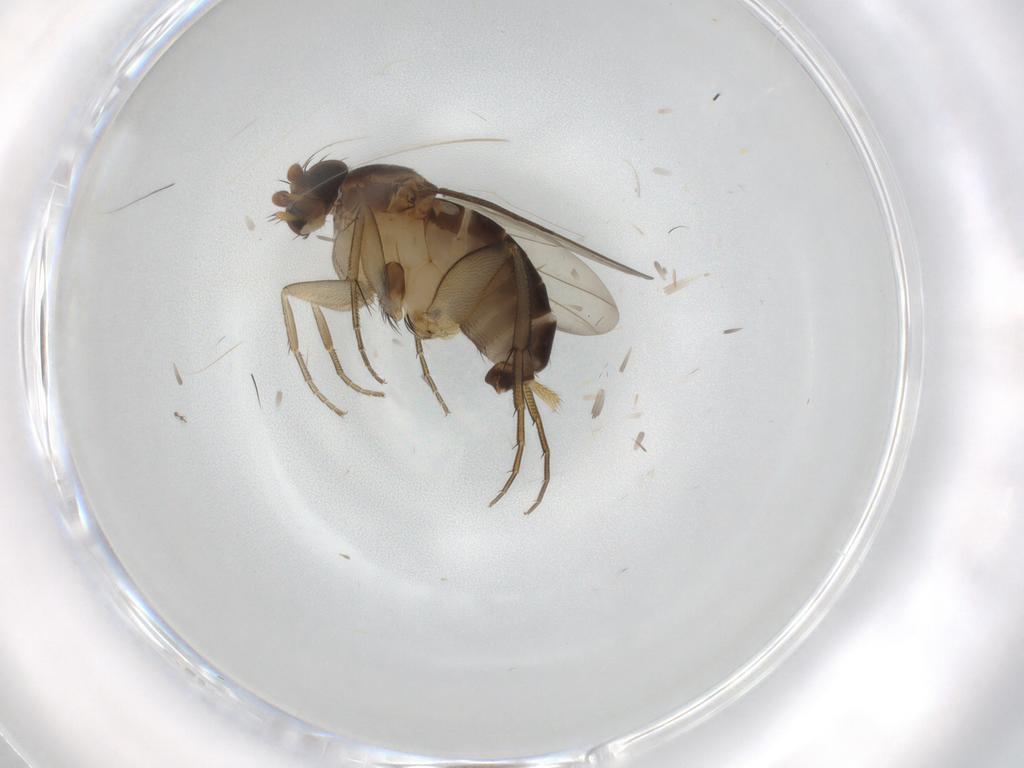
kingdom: Animalia
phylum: Arthropoda
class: Insecta
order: Diptera
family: Phoridae
